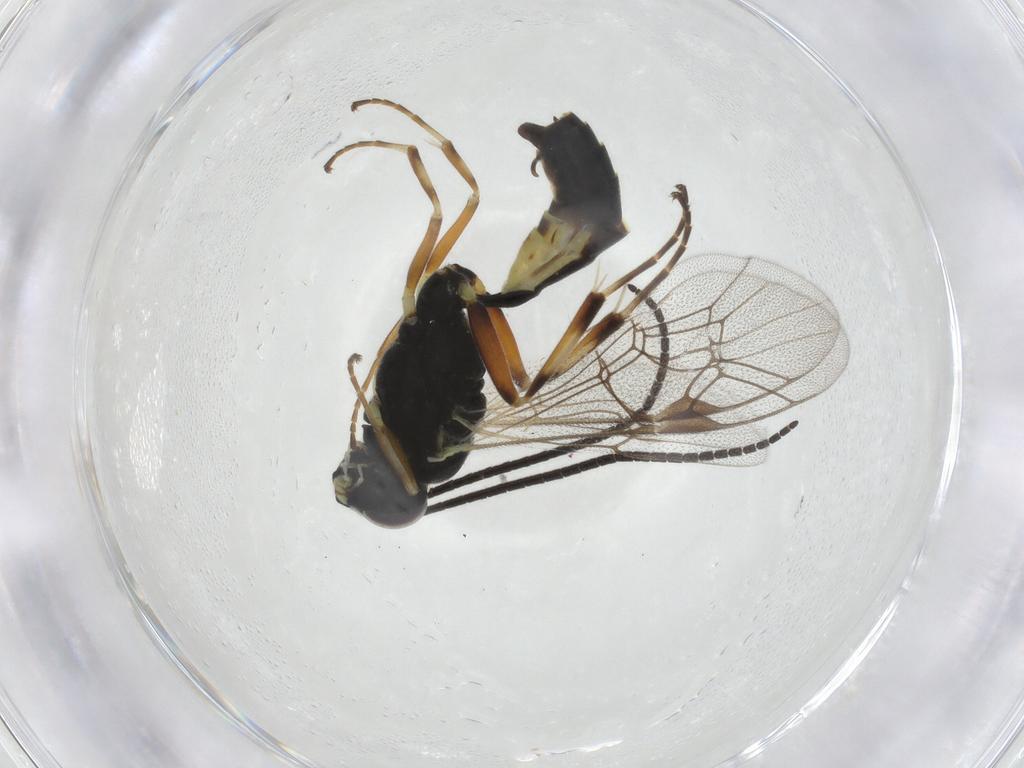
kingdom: Animalia
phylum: Arthropoda
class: Insecta
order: Hymenoptera
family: Ichneumonidae
